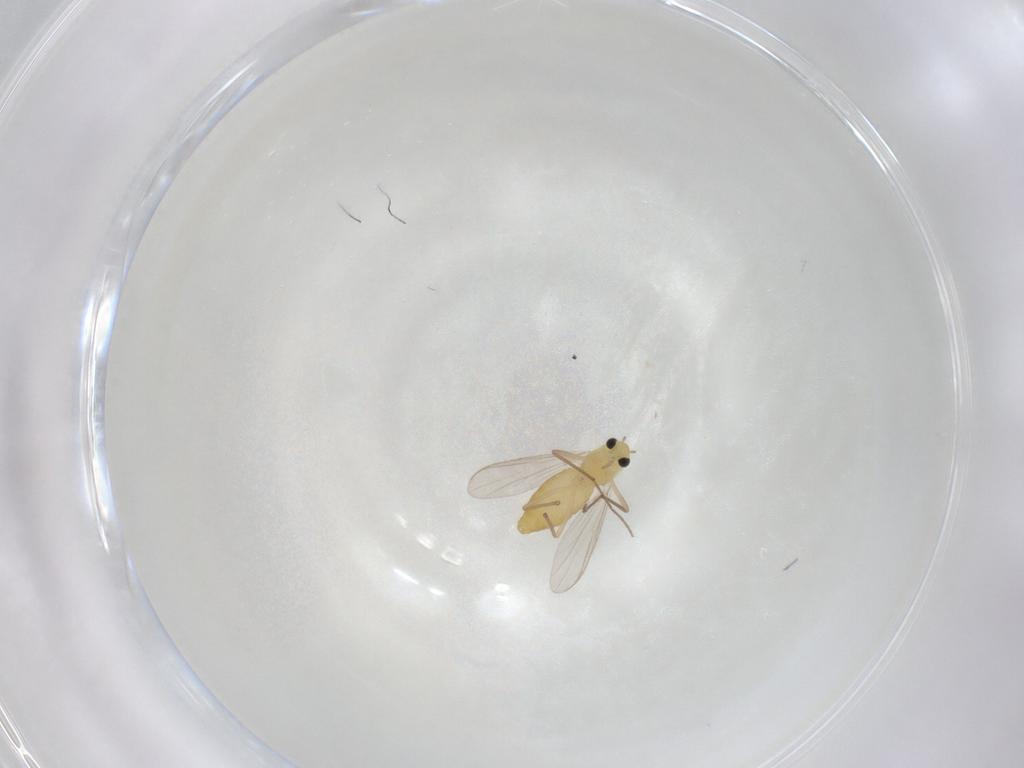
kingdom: Animalia
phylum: Arthropoda
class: Insecta
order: Diptera
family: Chironomidae
